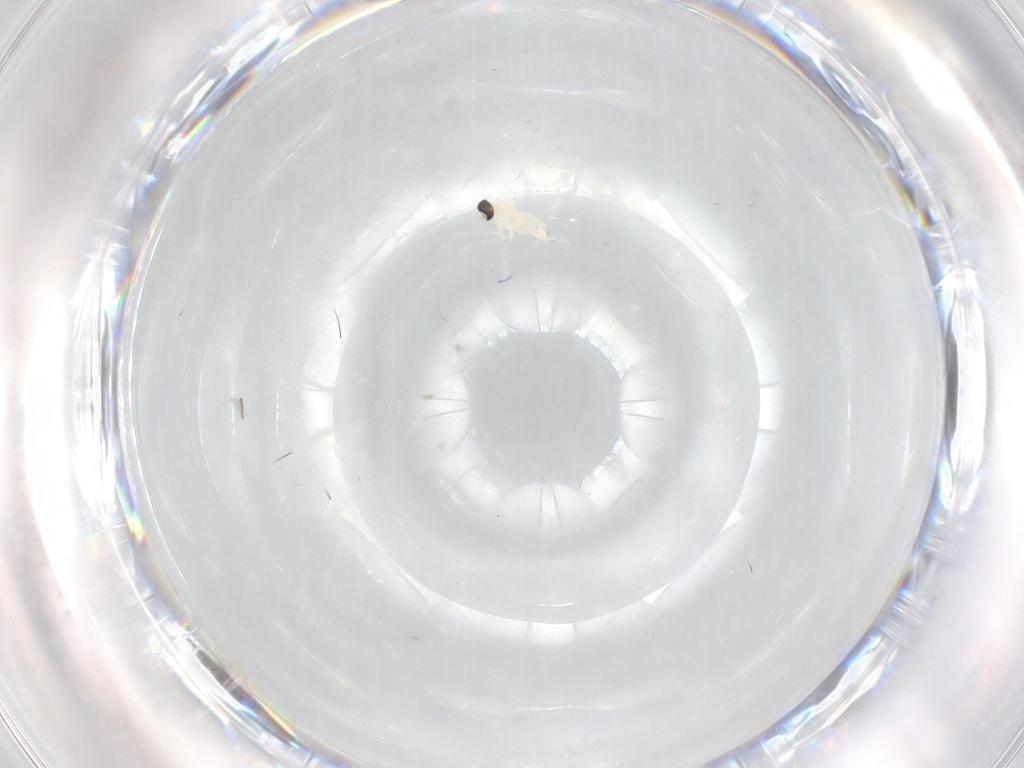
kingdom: Animalia
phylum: Arthropoda
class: Insecta
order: Diptera
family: Cecidomyiidae
